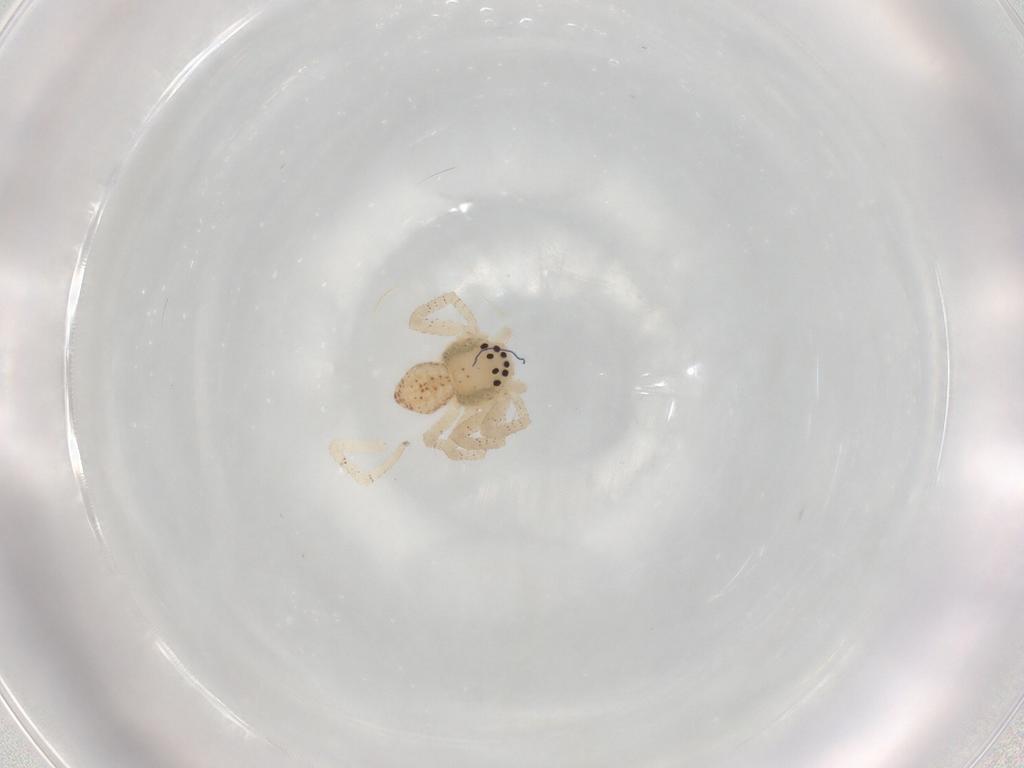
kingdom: Animalia
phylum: Arthropoda
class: Arachnida
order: Araneae
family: Philodromidae
